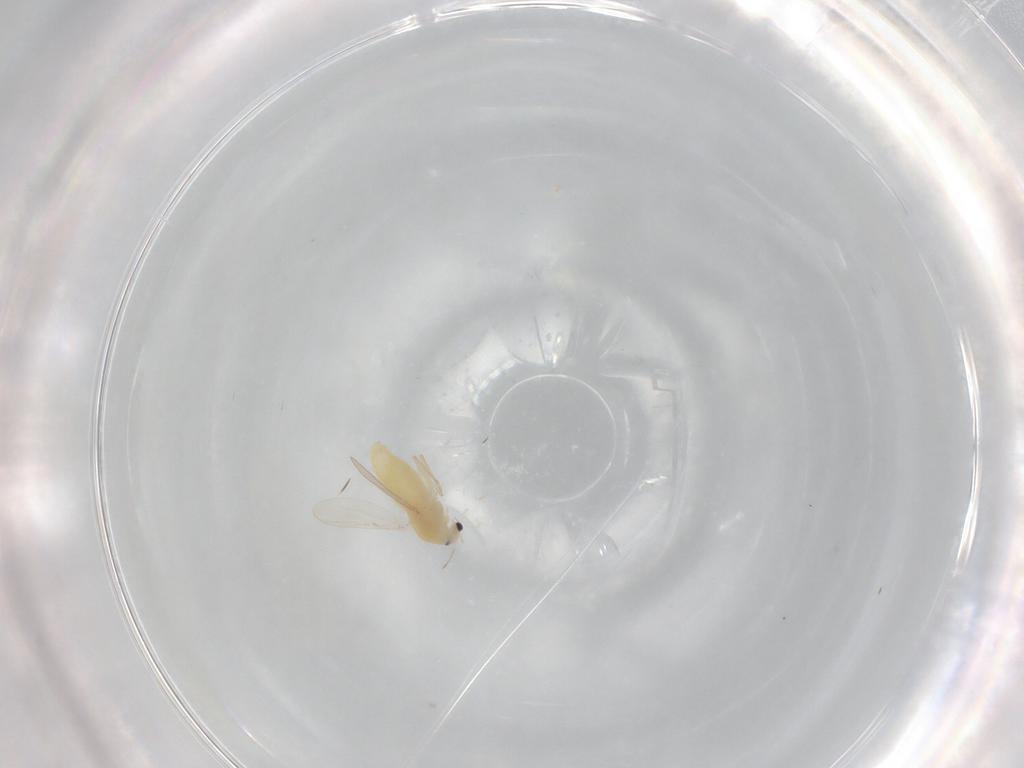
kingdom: Animalia
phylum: Arthropoda
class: Insecta
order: Diptera
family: Chironomidae
